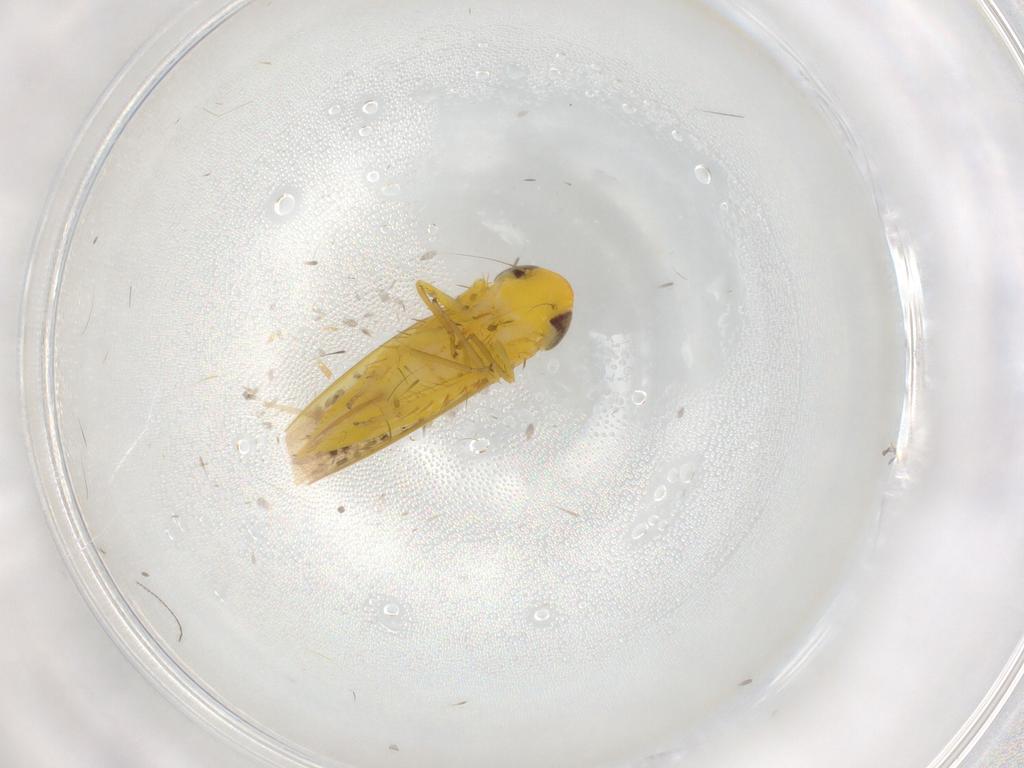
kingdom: Animalia
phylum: Arthropoda
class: Insecta
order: Hemiptera
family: Cicadellidae
